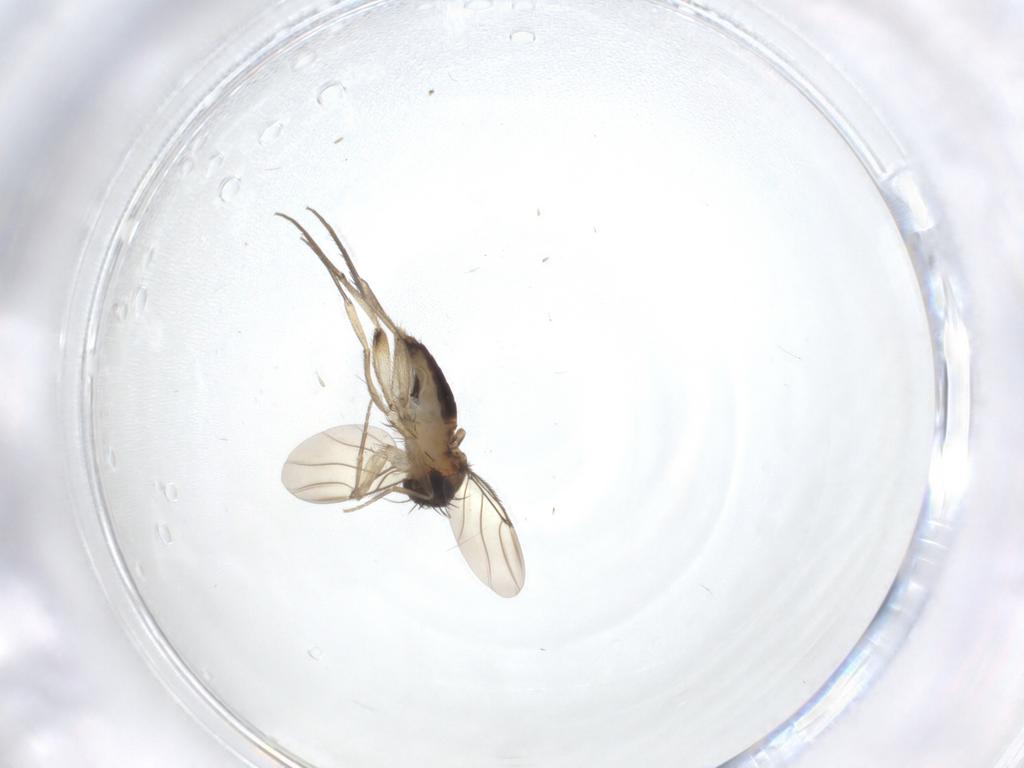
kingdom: Animalia
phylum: Arthropoda
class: Insecta
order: Diptera
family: Phoridae
